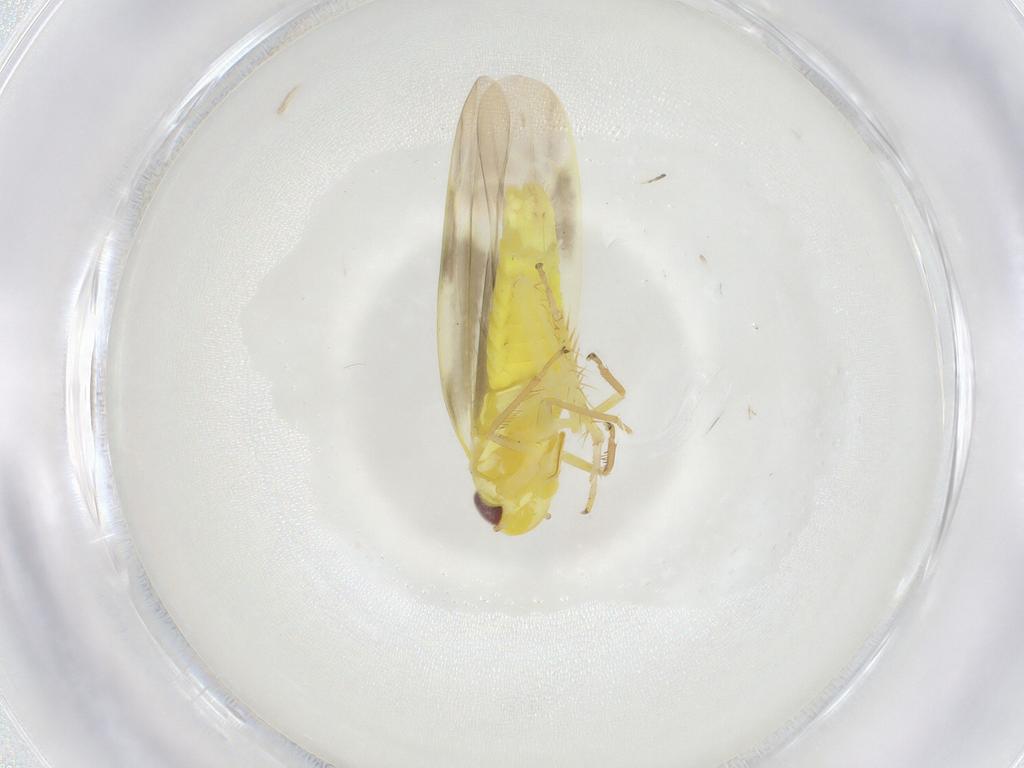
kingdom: Animalia
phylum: Arthropoda
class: Insecta
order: Hemiptera
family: Cicadellidae
